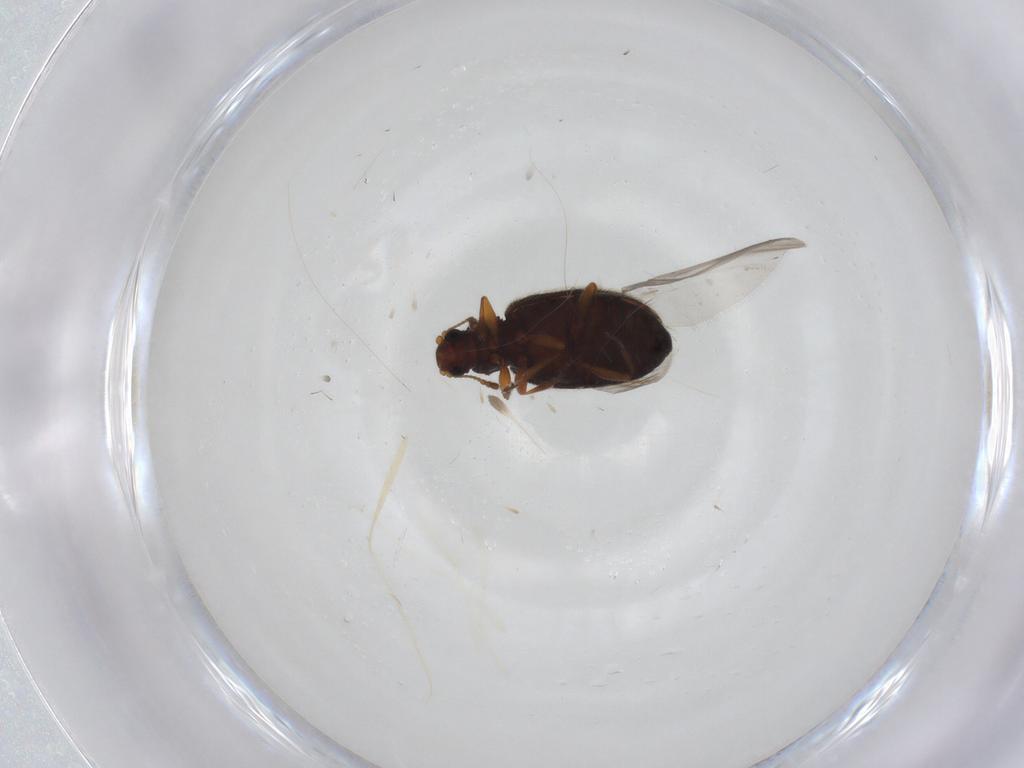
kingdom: Animalia
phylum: Arthropoda
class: Insecta
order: Coleoptera
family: Latridiidae
